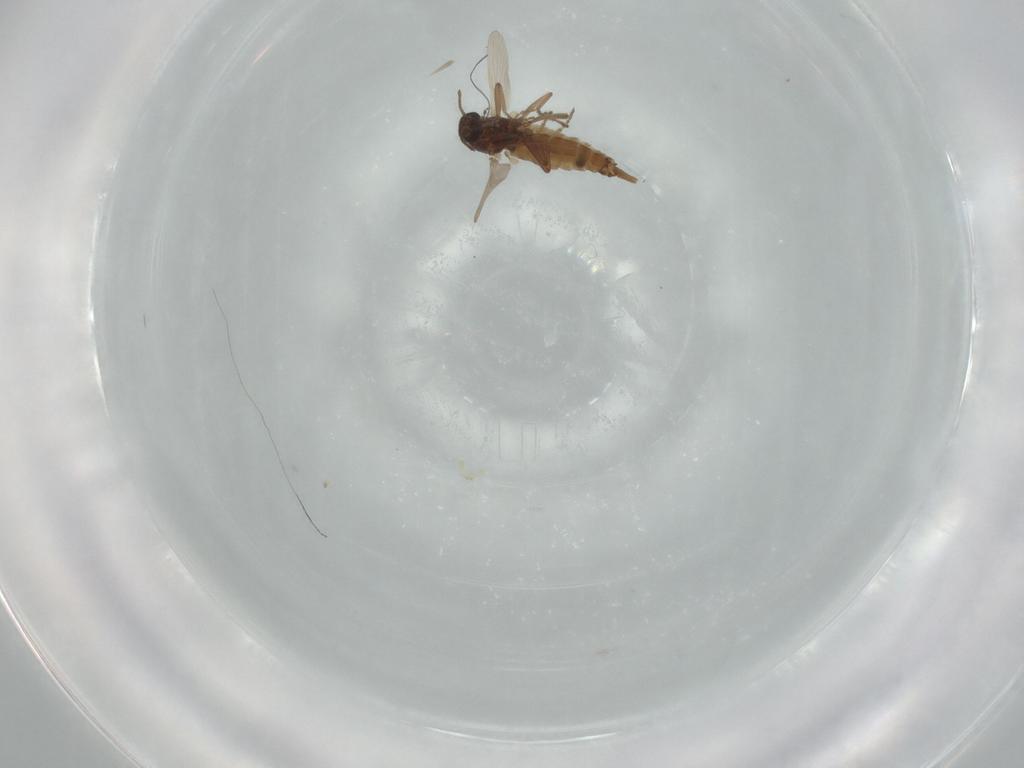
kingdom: Animalia
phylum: Arthropoda
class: Insecta
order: Diptera
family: Ceratopogonidae
